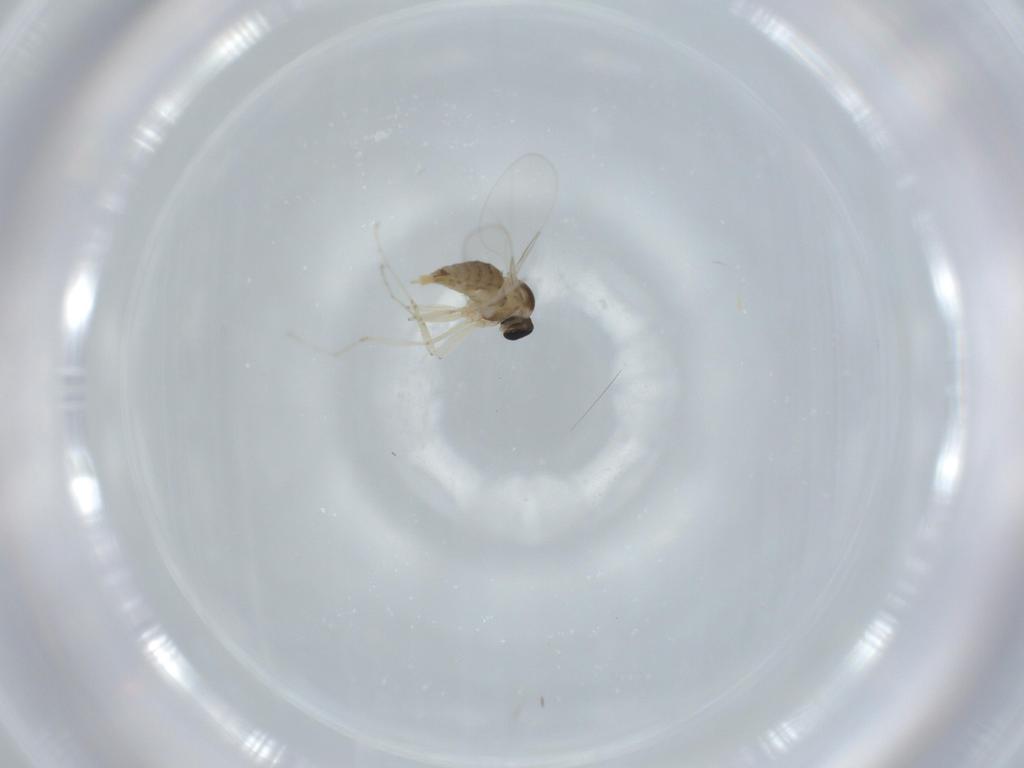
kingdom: Animalia
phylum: Arthropoda
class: Insecta
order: Diptera
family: Cecidomyiidae
